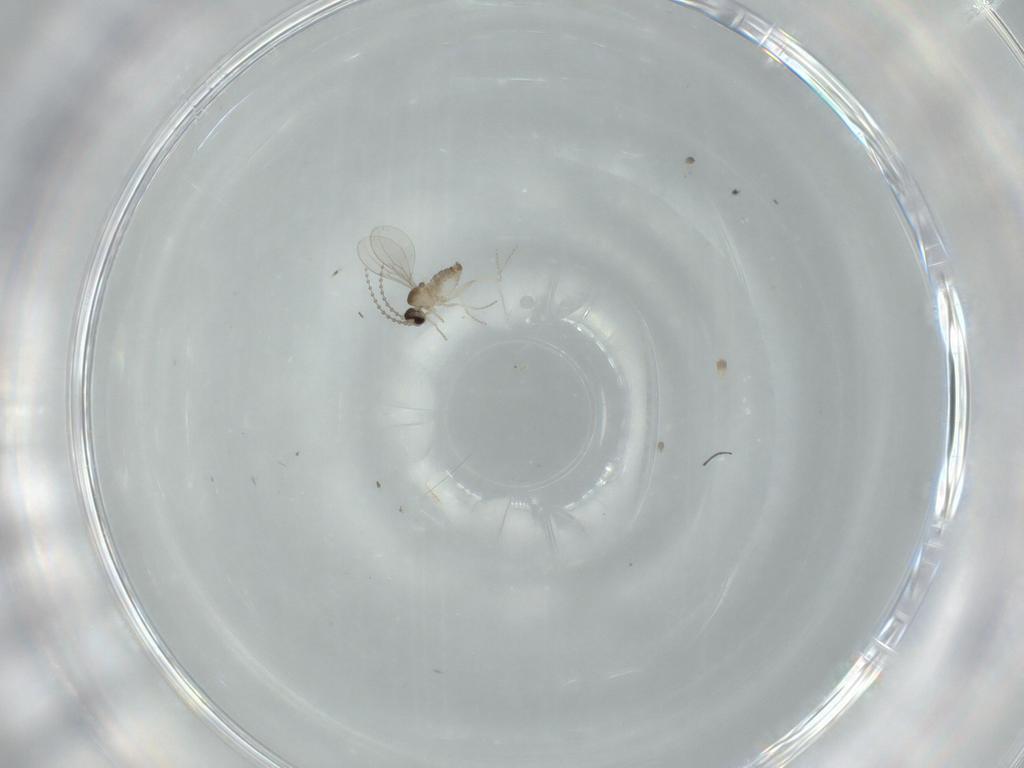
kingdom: Animalia
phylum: Arthropoda
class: Insecta
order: Diptera
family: Cecidomyiidae
